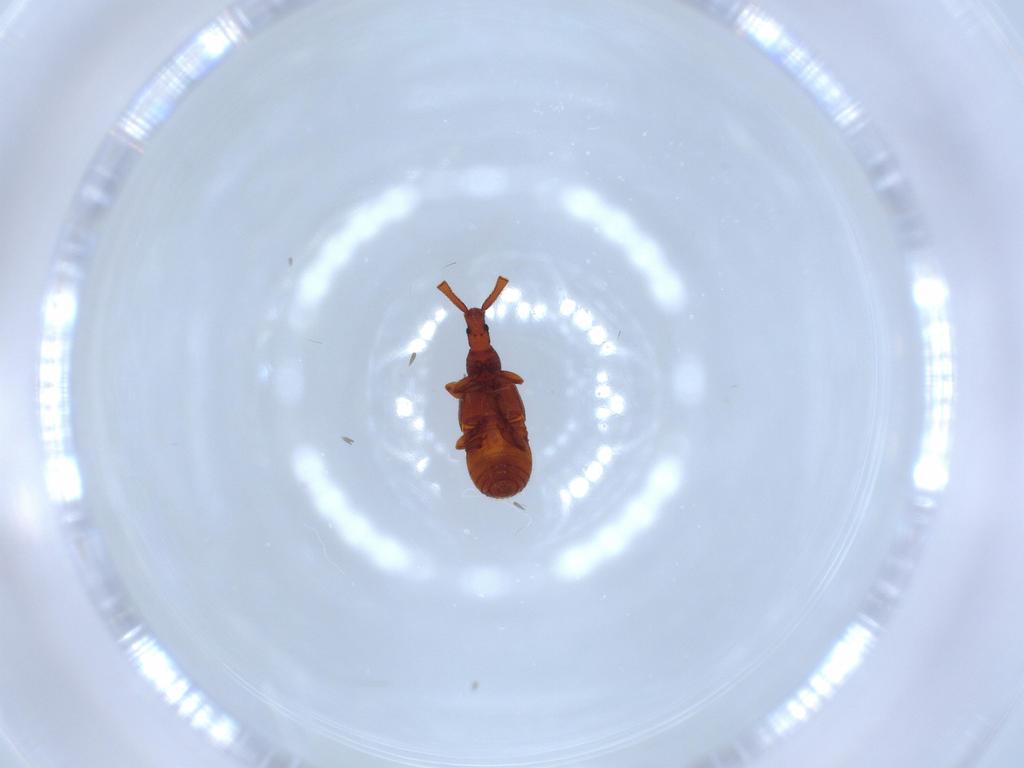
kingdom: Animalia
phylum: Arthropoda
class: Insecta
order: Coleoptera
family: Staphylinidae
